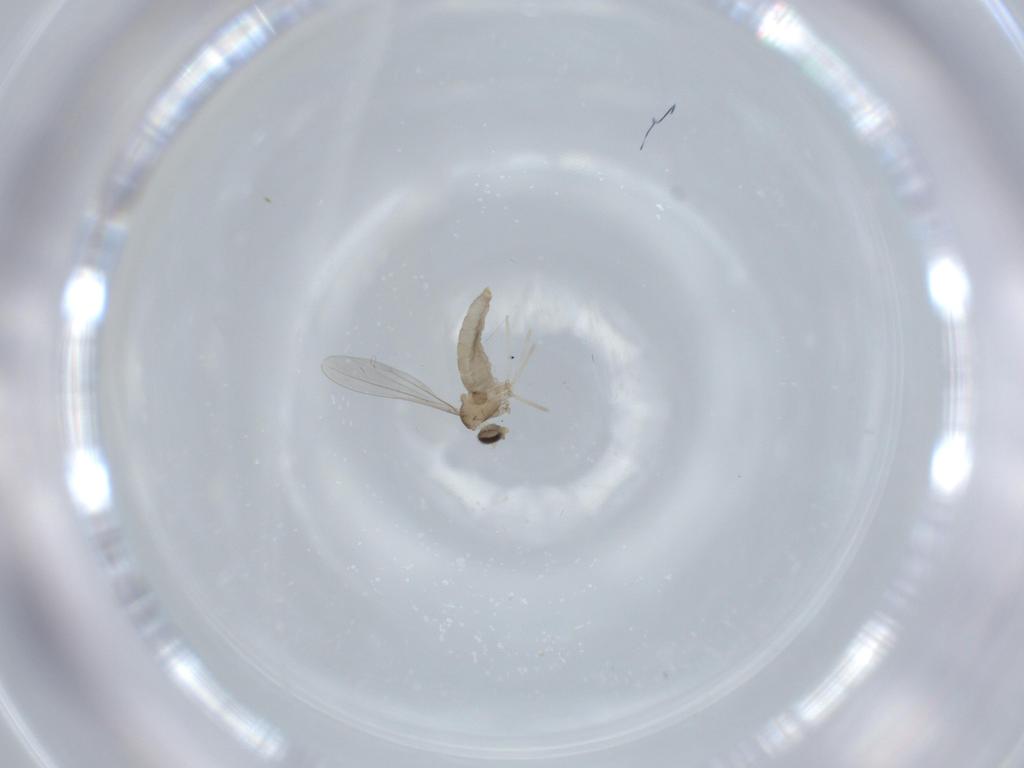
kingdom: Animalia
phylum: Arthropoda
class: Insecta
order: Diptera
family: Cecidomyiidae
